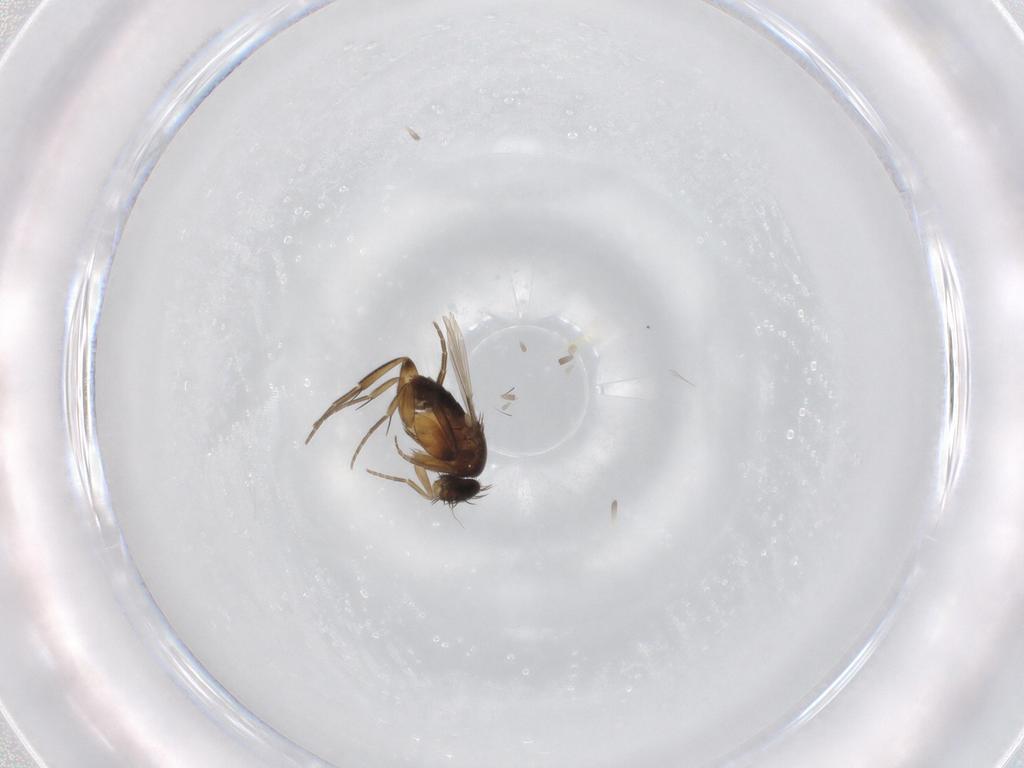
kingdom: Animalia
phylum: Arthropoda
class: Insecta
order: Diptera
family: Phoridae
